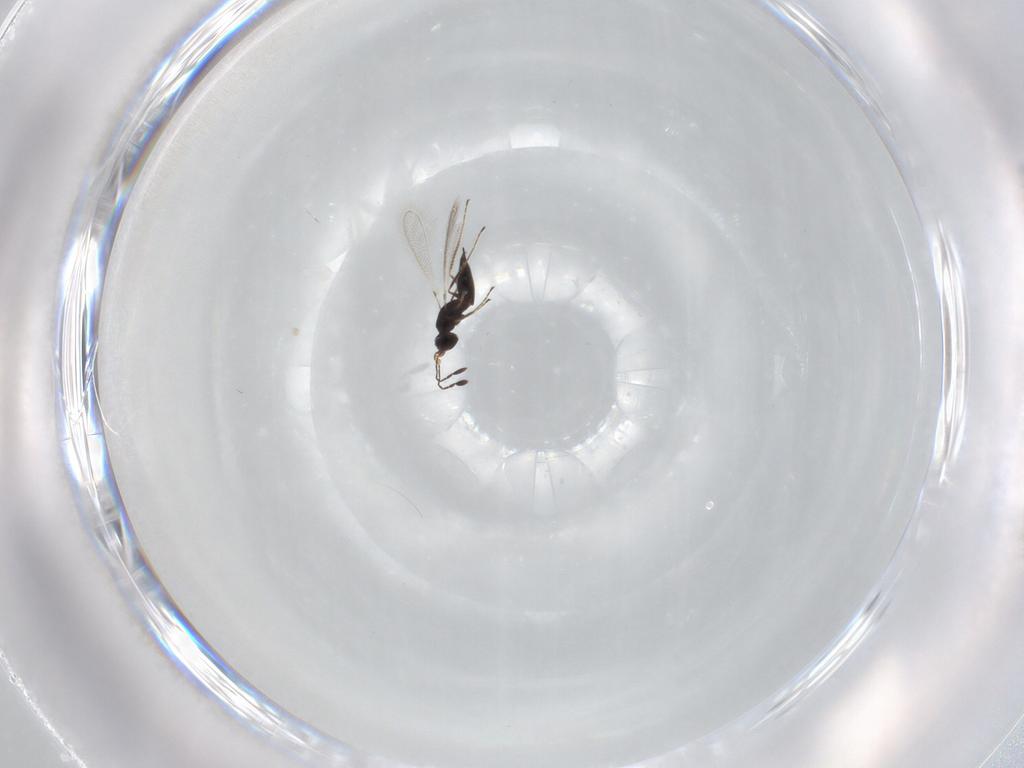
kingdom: Animalia
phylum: Arthropoda
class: Insecta
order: Hymenoptera
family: Mymaridae
